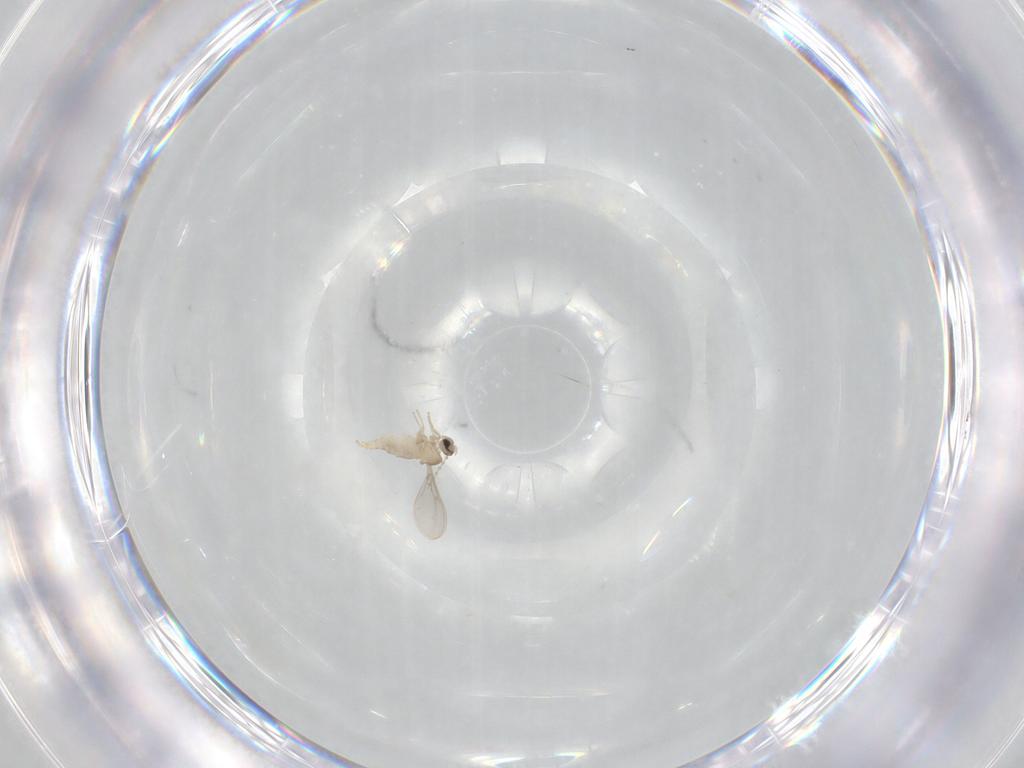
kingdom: Animalia
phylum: Arthropoda
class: Insecta
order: Diptera
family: Cecidomyiidae
